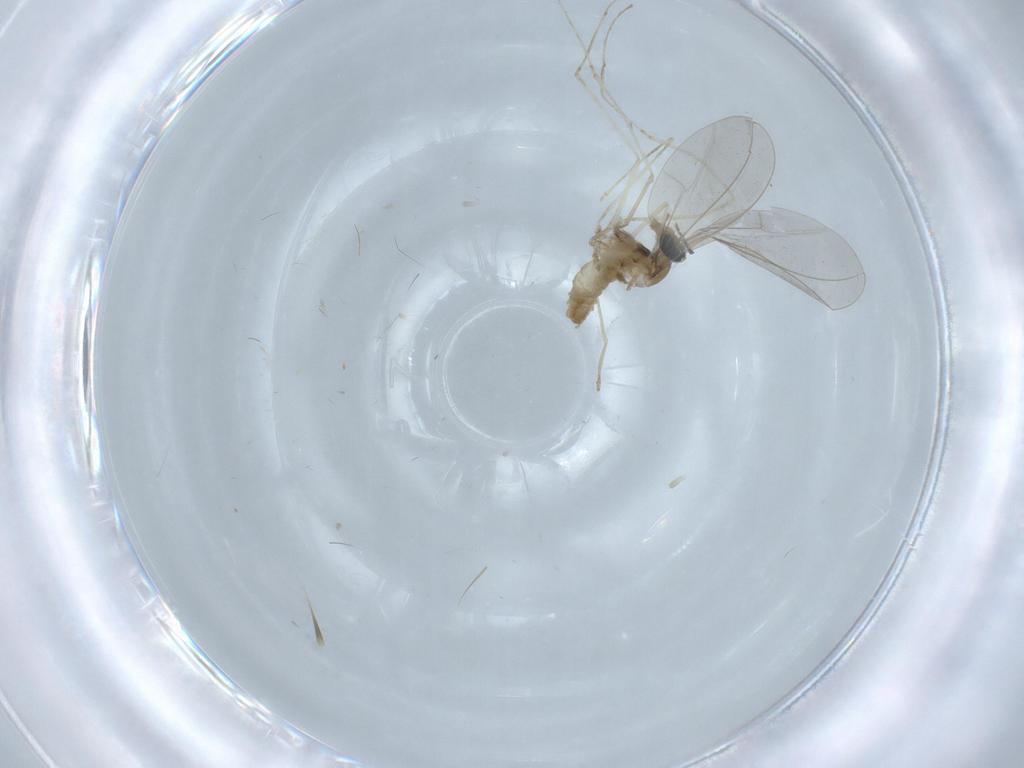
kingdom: Animalia
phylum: Arthropoda
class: Insecta
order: Diptera
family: Cecidomyiidae
